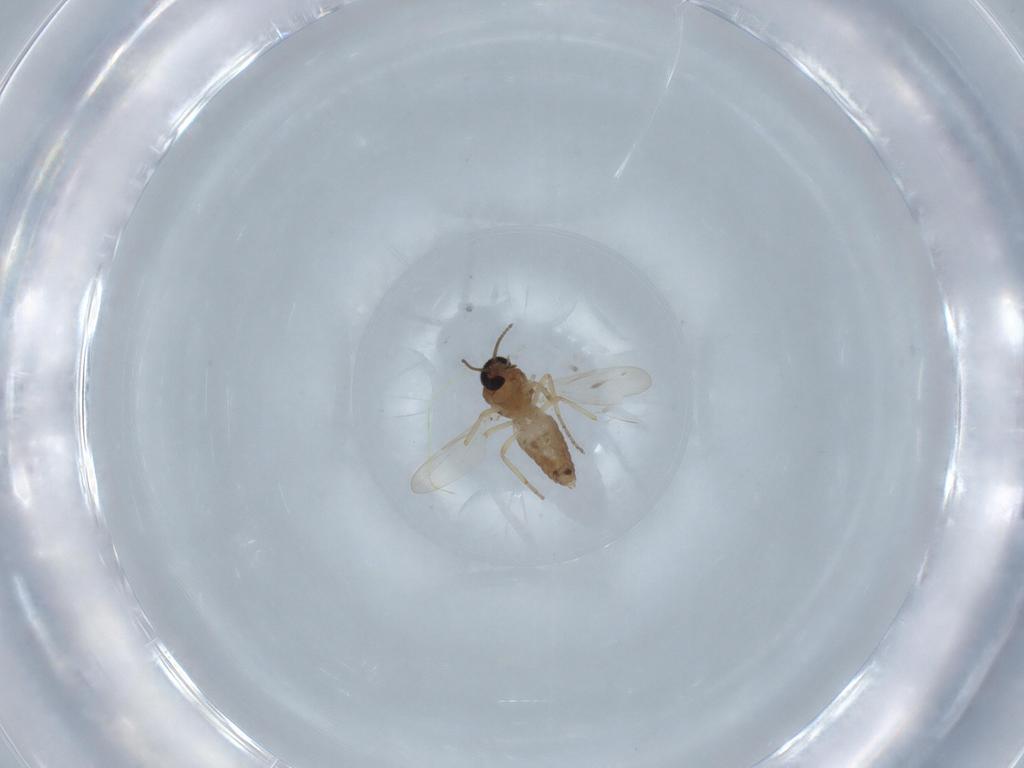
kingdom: Animalia
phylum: Arthropoda
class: Insecta
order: Diptera
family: Ceratopogonidae
